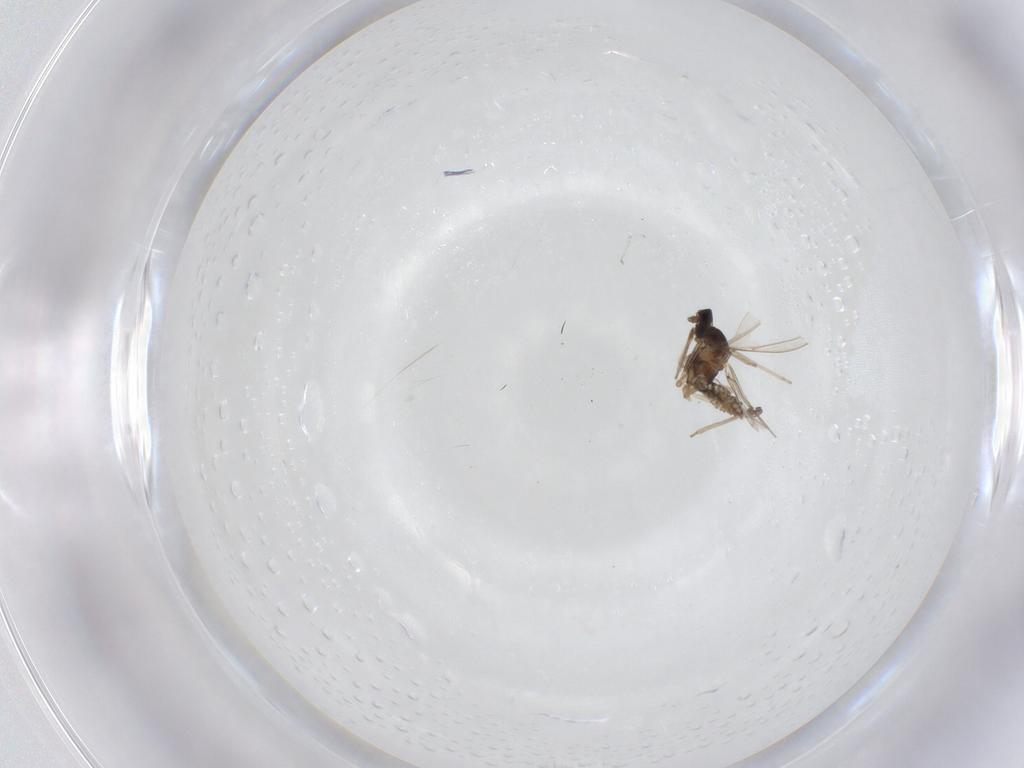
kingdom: Animalia
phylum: Arthropoda
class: Insecta
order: Diptera
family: Cecidomyiidae
